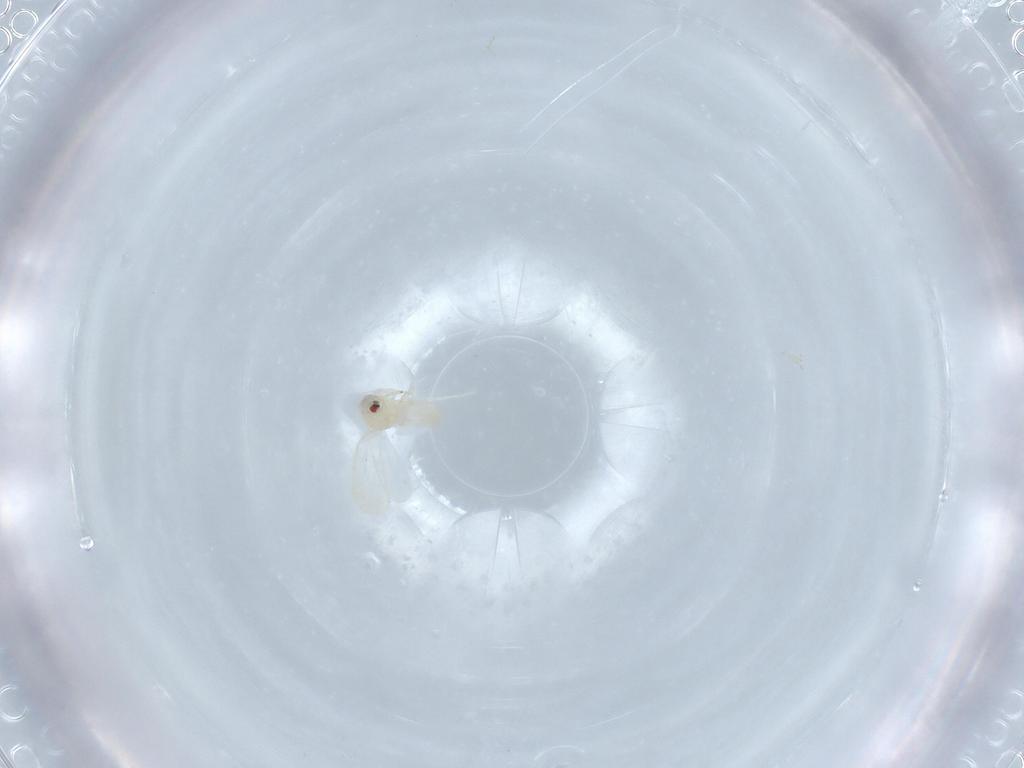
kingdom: Animalia
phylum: Arthropoda
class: Insecta
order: Hemiptera
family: Aleyrodidae
